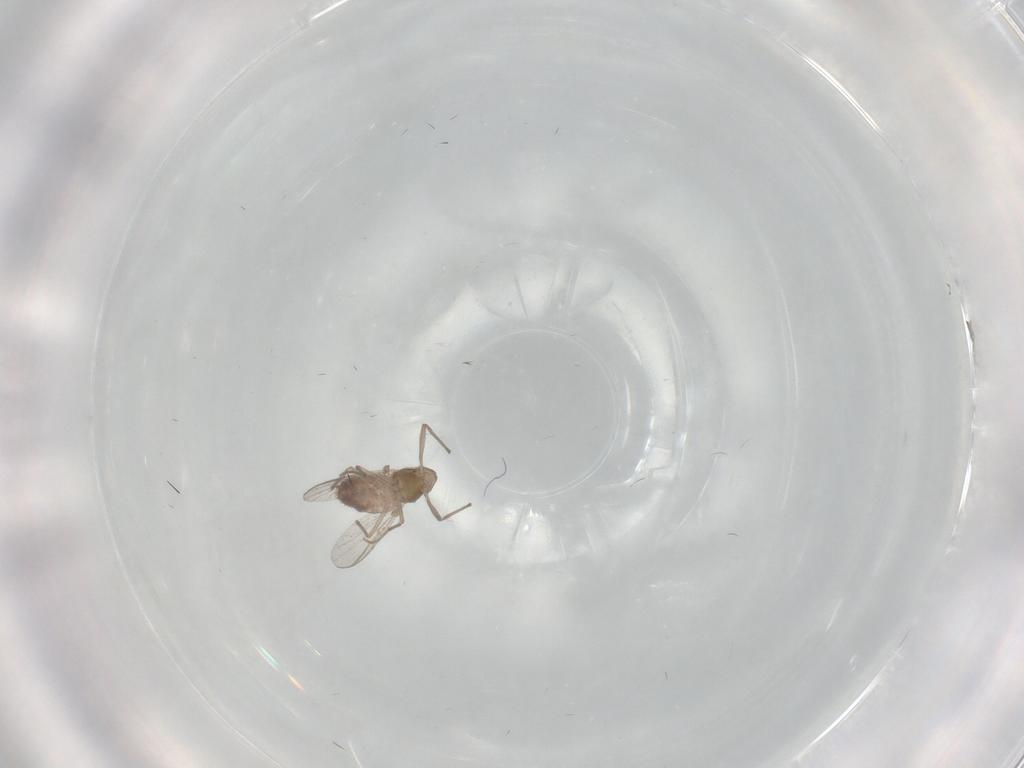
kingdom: Animalia
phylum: Arthropoda
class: Insecta
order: Diptera
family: Chironomidae
